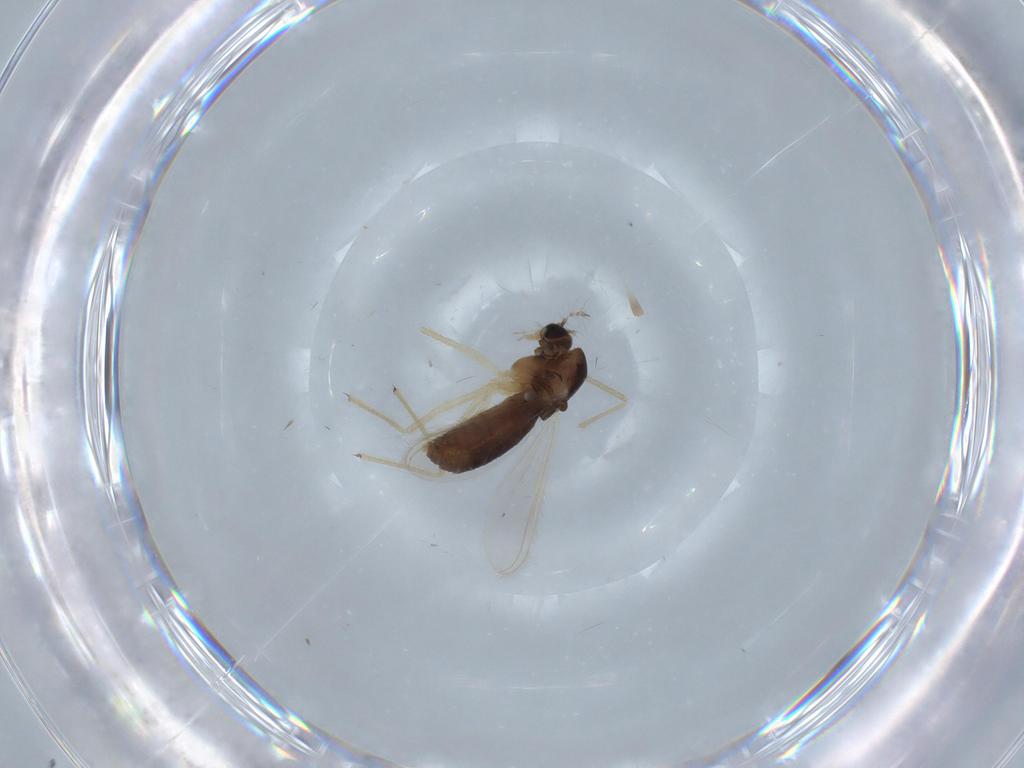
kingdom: Animalia
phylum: Arthropoda
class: Insecta
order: Diptera
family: Chironomidae
